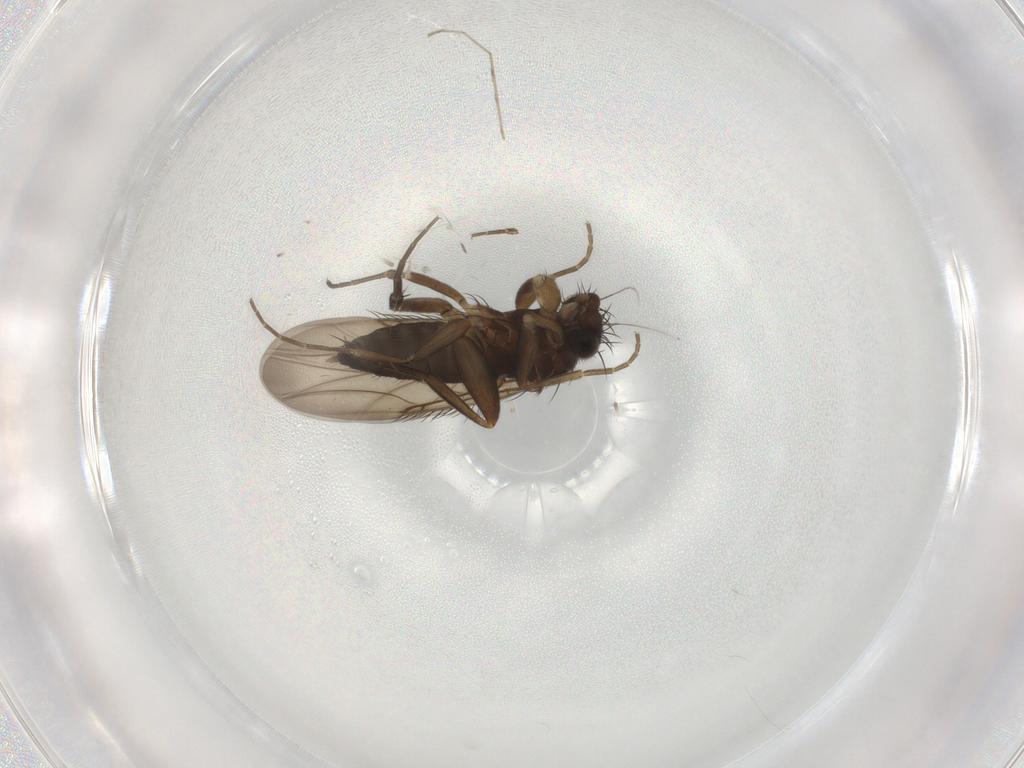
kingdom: Animalia
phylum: Arthropoda
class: Insecta
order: Diptera
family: Phoridae
